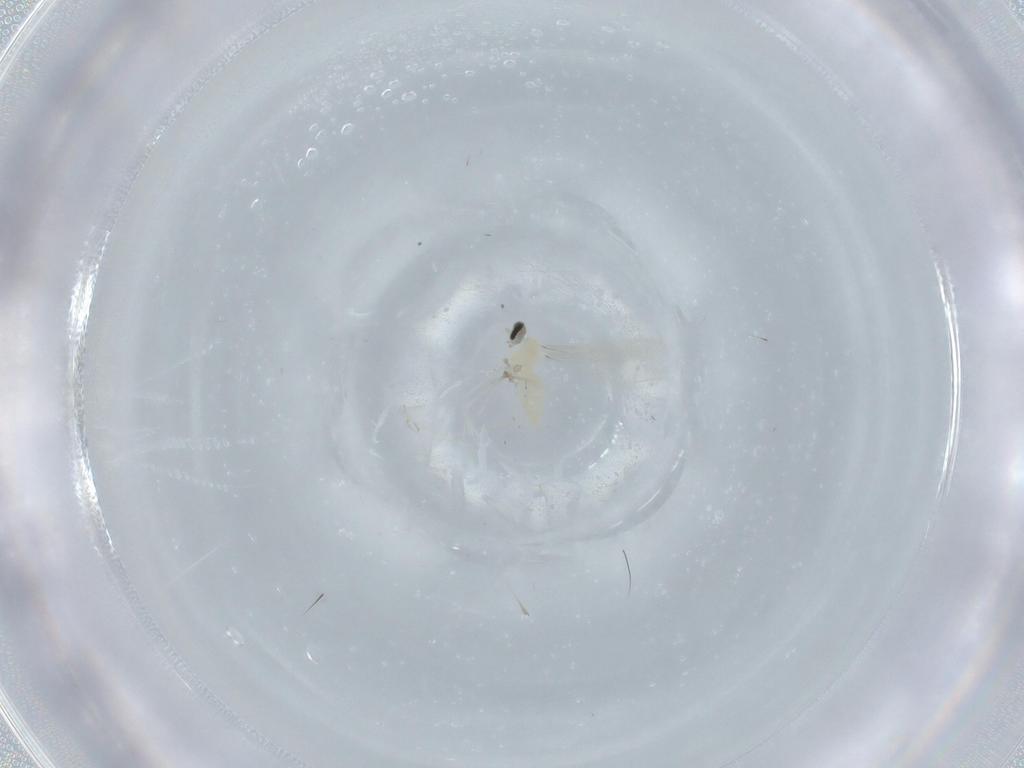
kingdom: Animalia
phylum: Arthropoda
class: Insecta
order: Diptera
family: Cecidomyiidae
